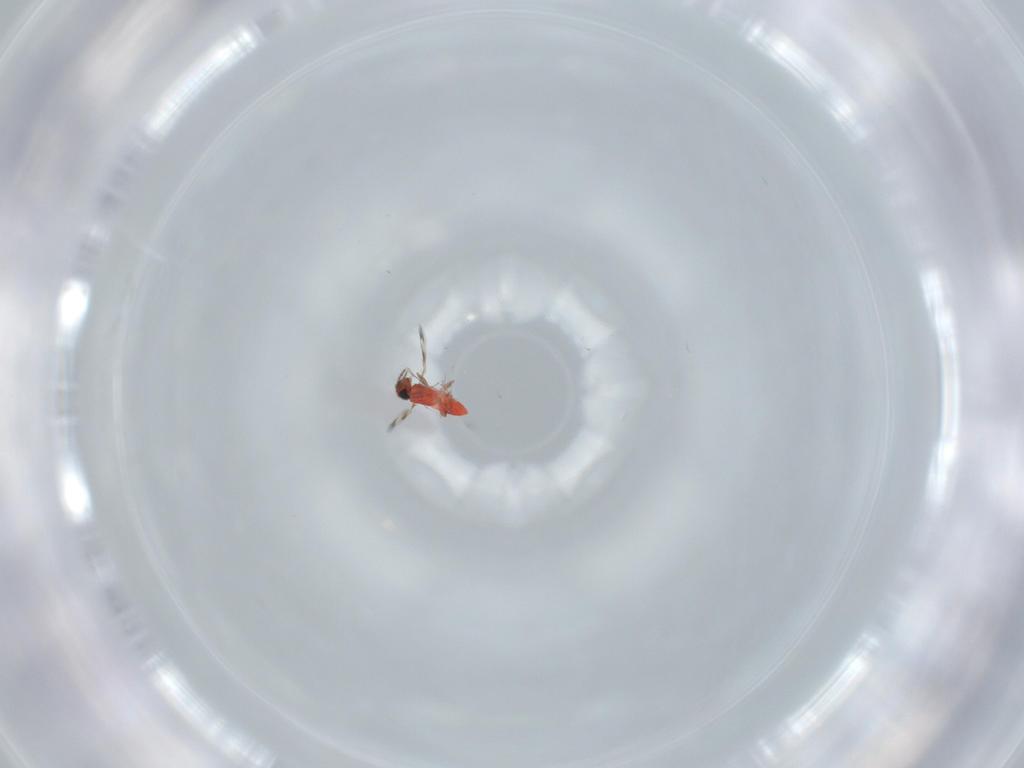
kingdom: Animalia
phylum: Arthropoda
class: Insecta
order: Hymenoptera
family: Trichogrammatidae
